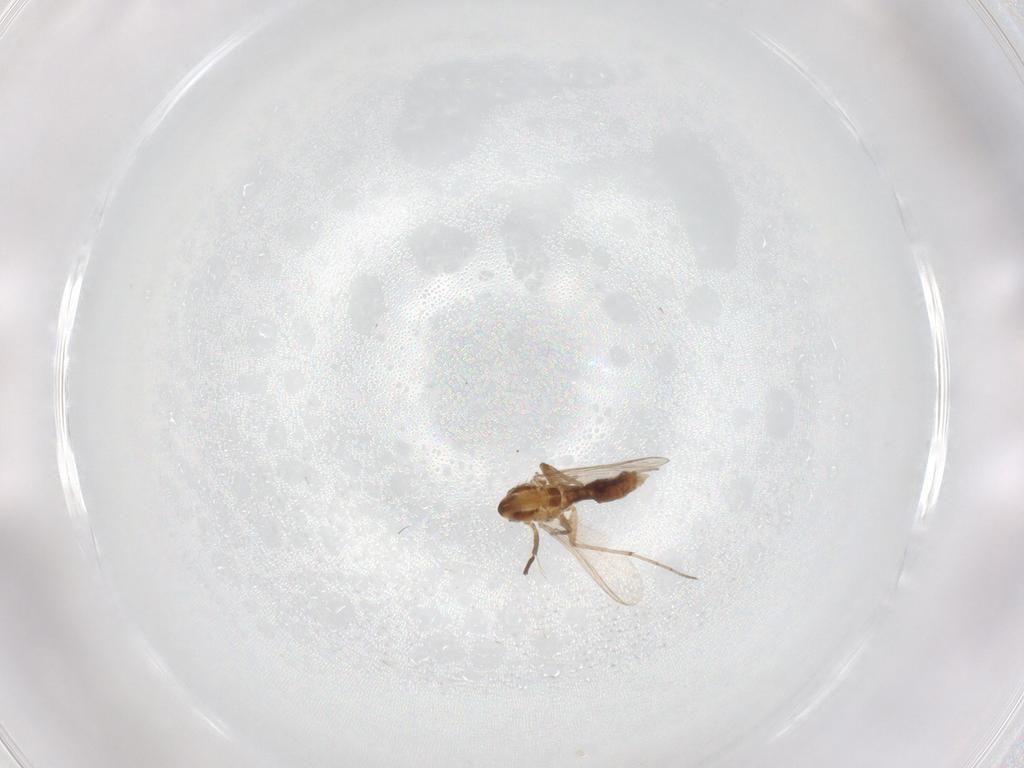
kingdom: Animalia
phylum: Arthropoda
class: Insecta
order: Diptera
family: Chironomidae
